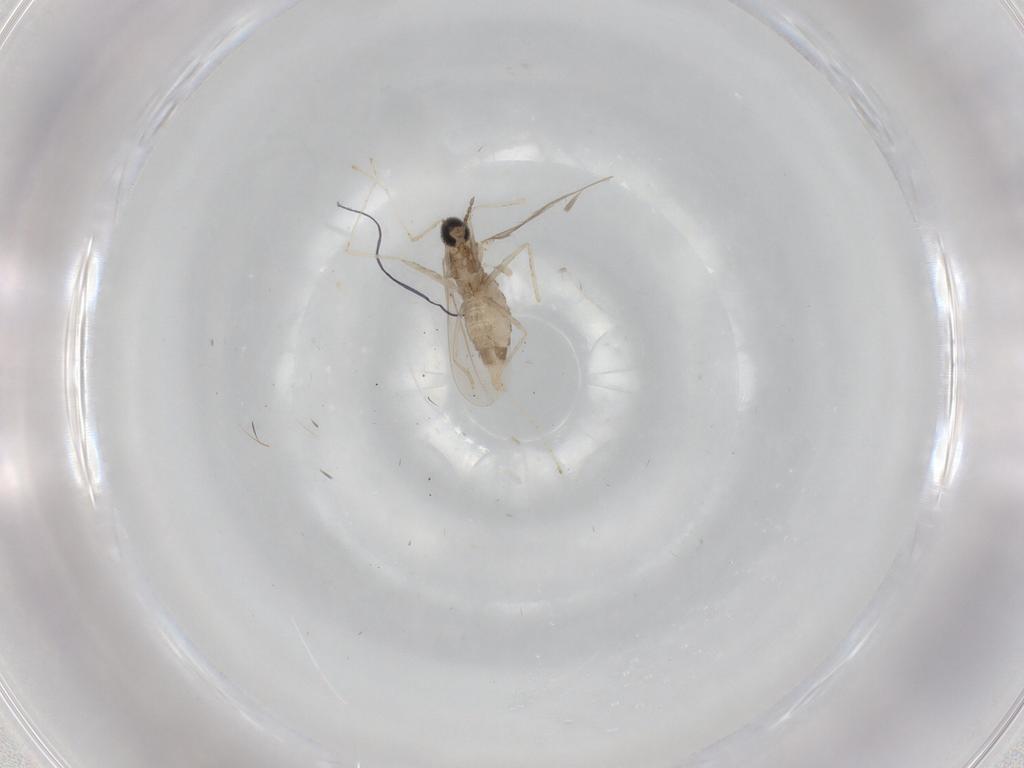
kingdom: Animalia
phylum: Arthropoda
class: Insecta
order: Diptera
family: Cecidomyiidae
